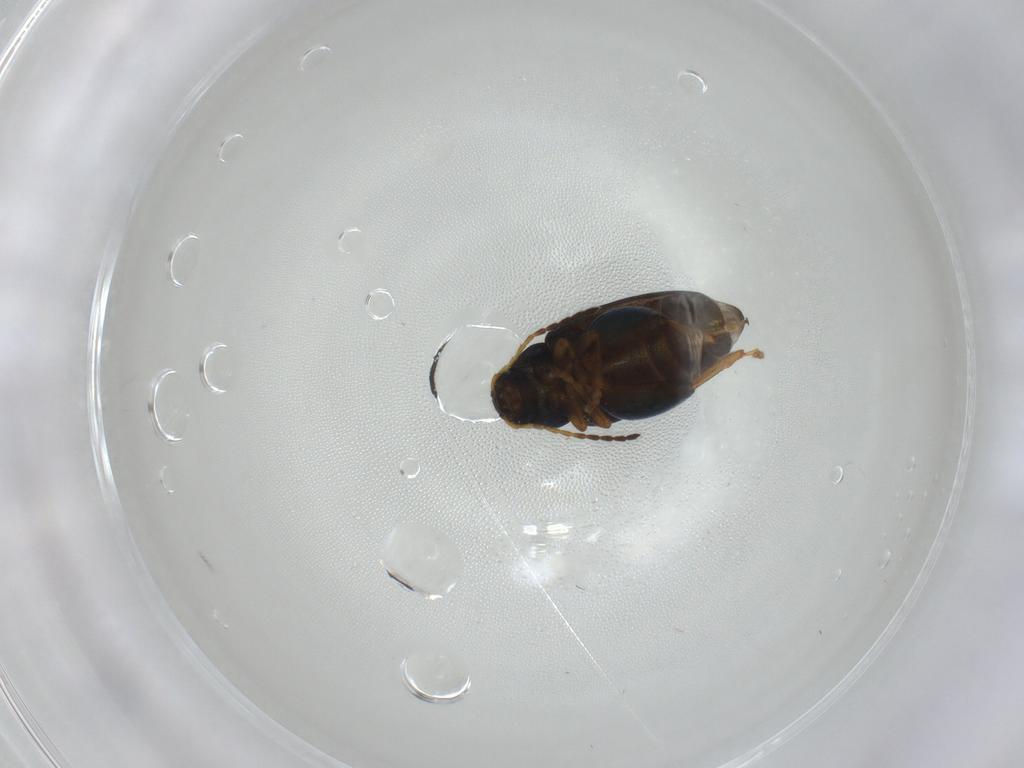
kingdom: Animalia
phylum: Arthropoda
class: Insecta
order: Coleoptera
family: Chrysomelidae
